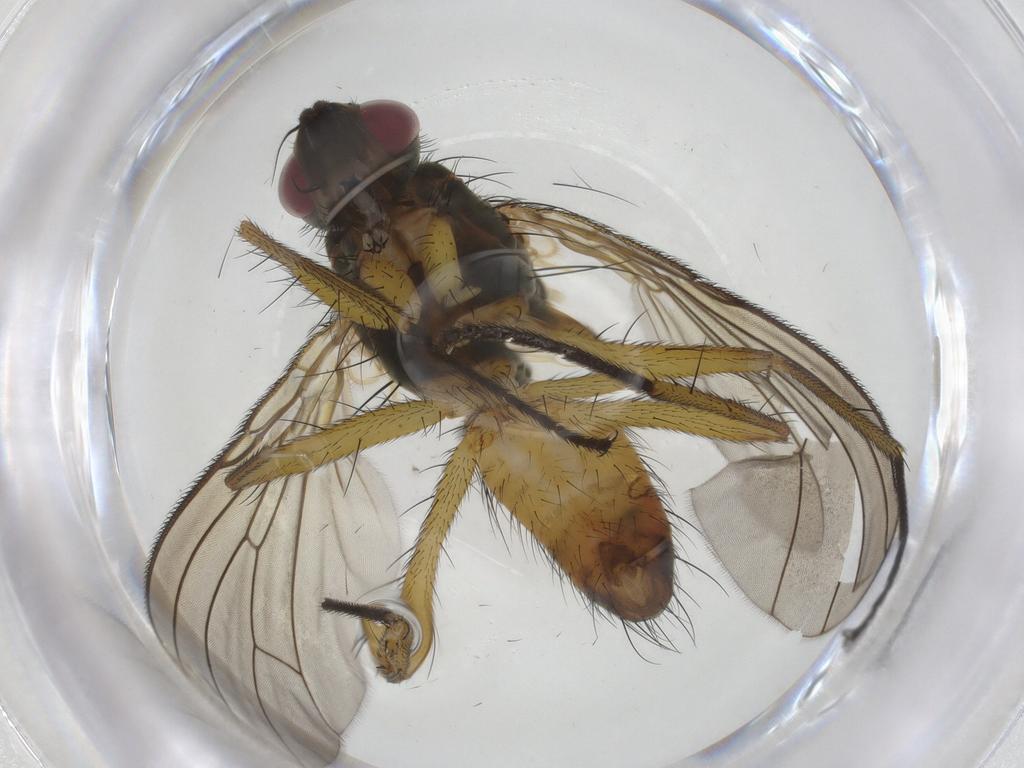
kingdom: Animalia
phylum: Arthropoda
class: Insecta
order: Diptera
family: Muscidae
